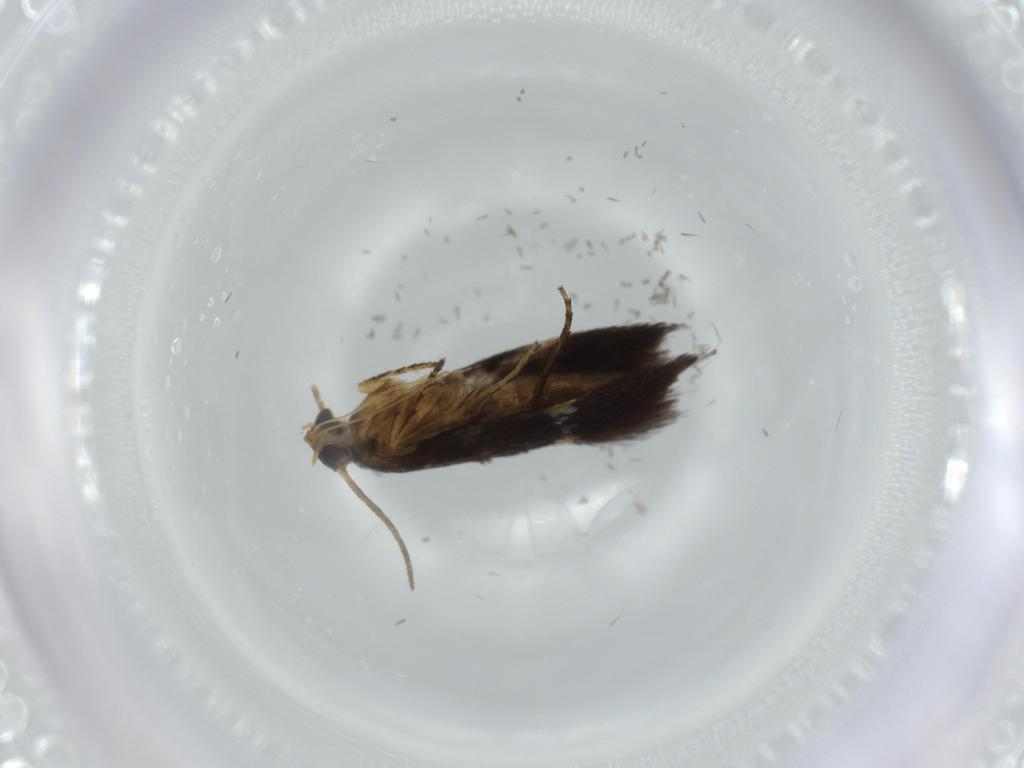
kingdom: Animalia
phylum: Arthropoda
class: Insecta
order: Lepidoptera
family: Tineidae
